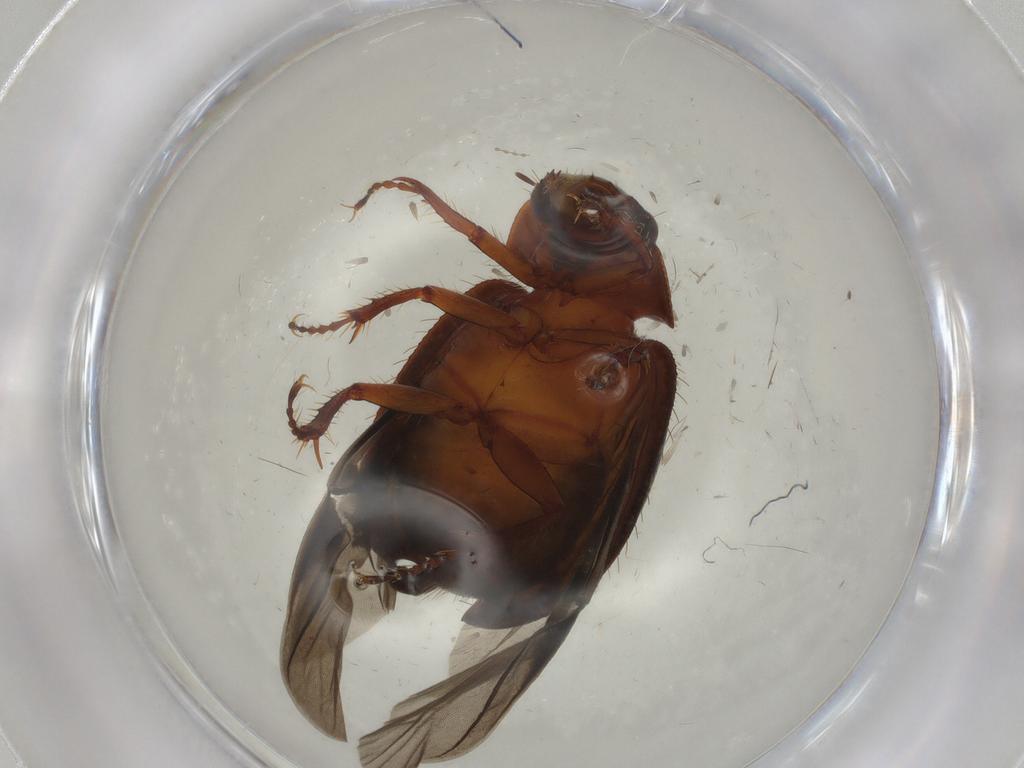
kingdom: Animalia
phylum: Arthropoda
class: Insecta
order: Coleoptera
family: Hybosoridae
